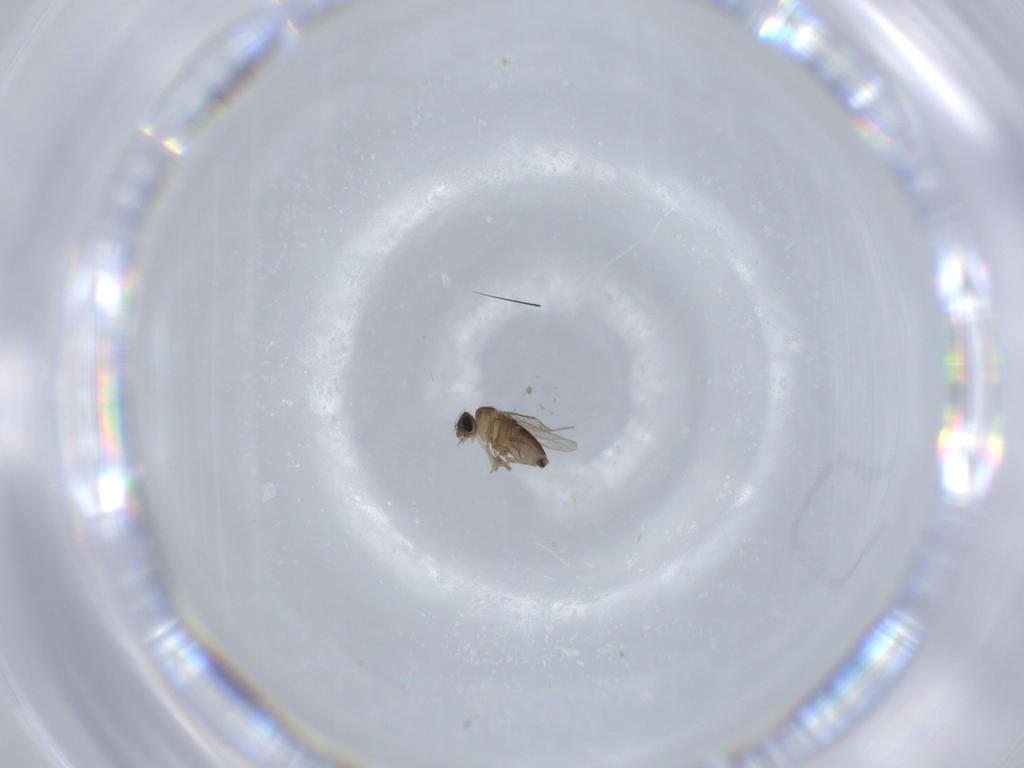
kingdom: Animalia
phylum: Arthropoda
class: Insecta
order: Diptera
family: Phoridae
